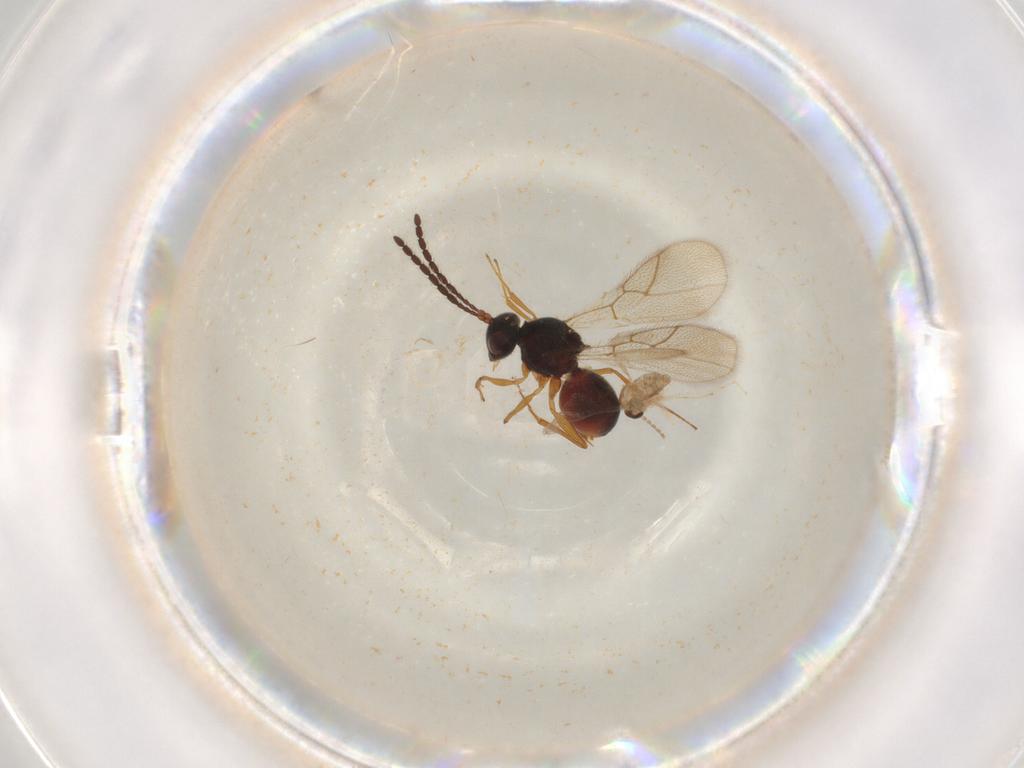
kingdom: Animalia
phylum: Arthropoda
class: Insecta
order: Diptera
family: Cecidomyiidae
